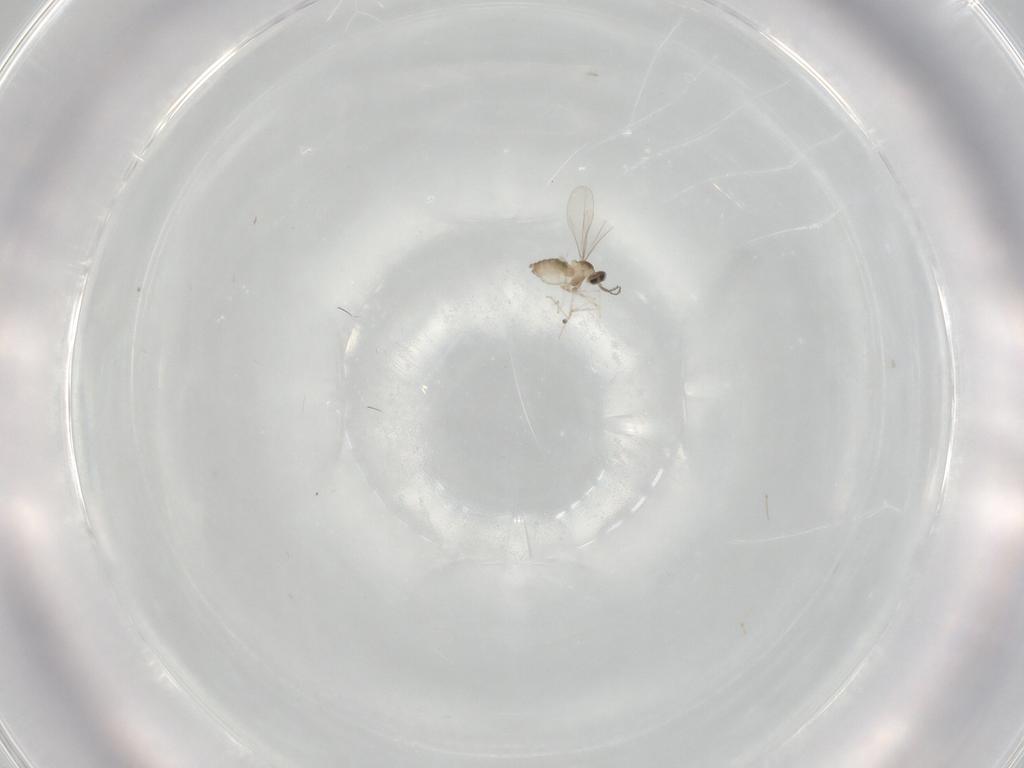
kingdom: Animalia
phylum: Arthropoda
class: Insecta
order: Diptera
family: Cecidomyiidae
